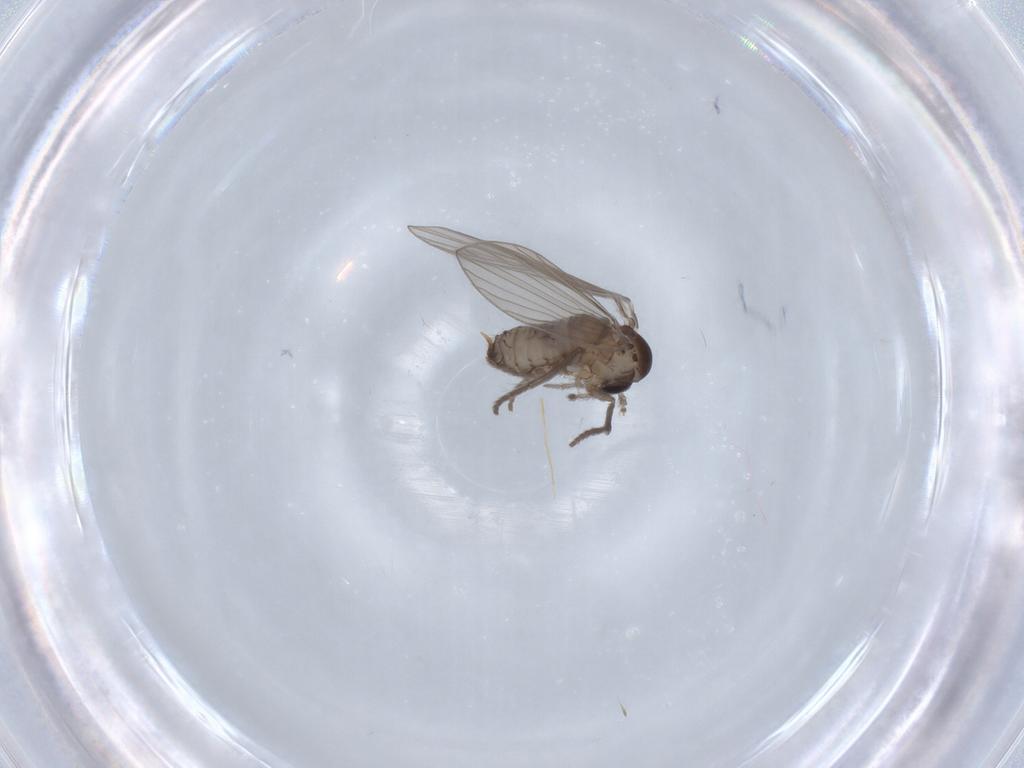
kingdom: Animalia
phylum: Arthropoda
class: Insecta
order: Diptera
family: Psychodidae
